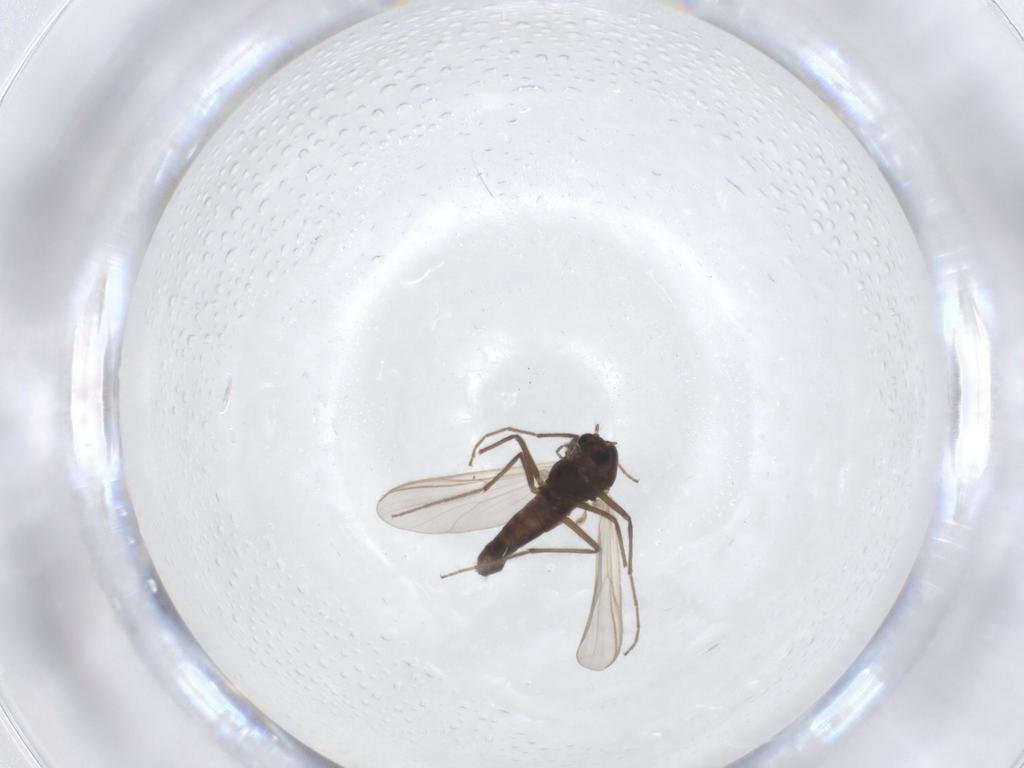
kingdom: Animalia
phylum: Arthropoda
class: Insecta
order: Diptera
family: Chironomidae
